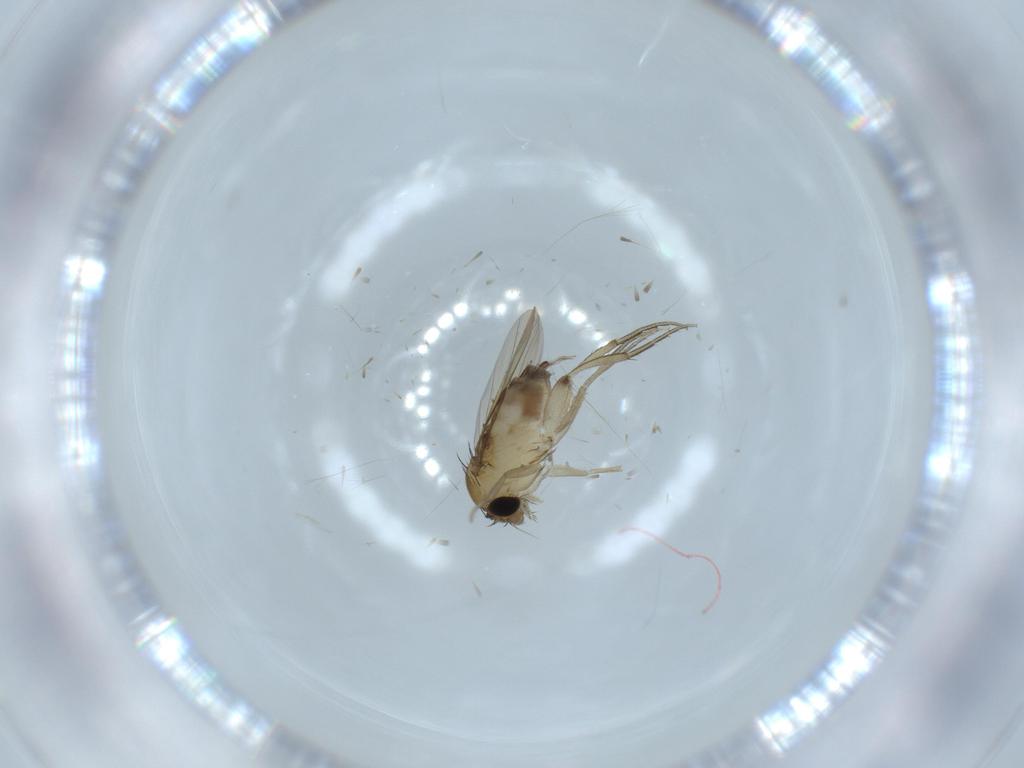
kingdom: Animalia
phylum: Arthropoda
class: Insecta
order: Diptera
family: Phoridae
